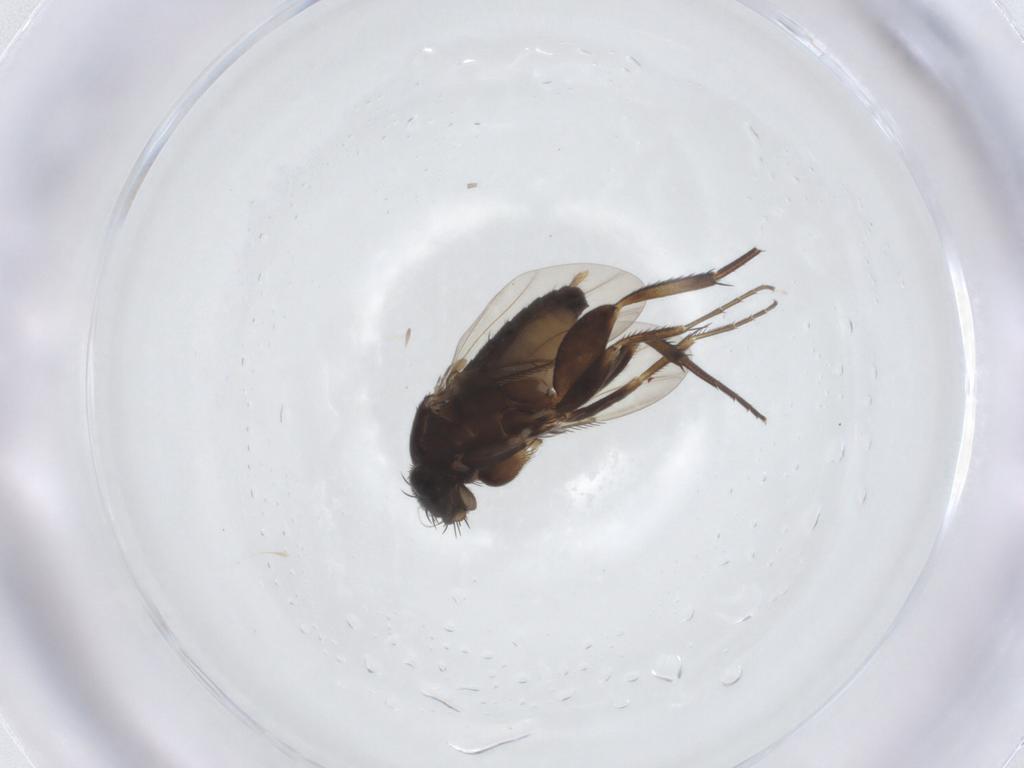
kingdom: Animalia
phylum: Arthropoda
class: Insecta
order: Diptera
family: Phoridae
